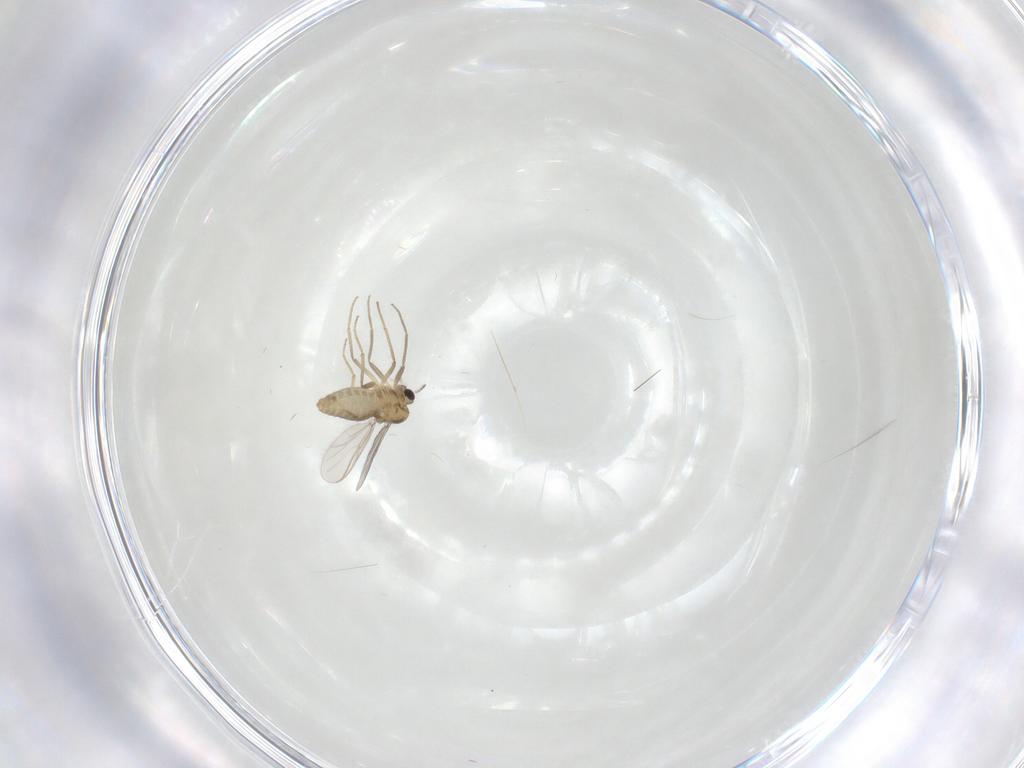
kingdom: Animalia
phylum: Arthropoda
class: Insecta
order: Diptera
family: Chironomidae
